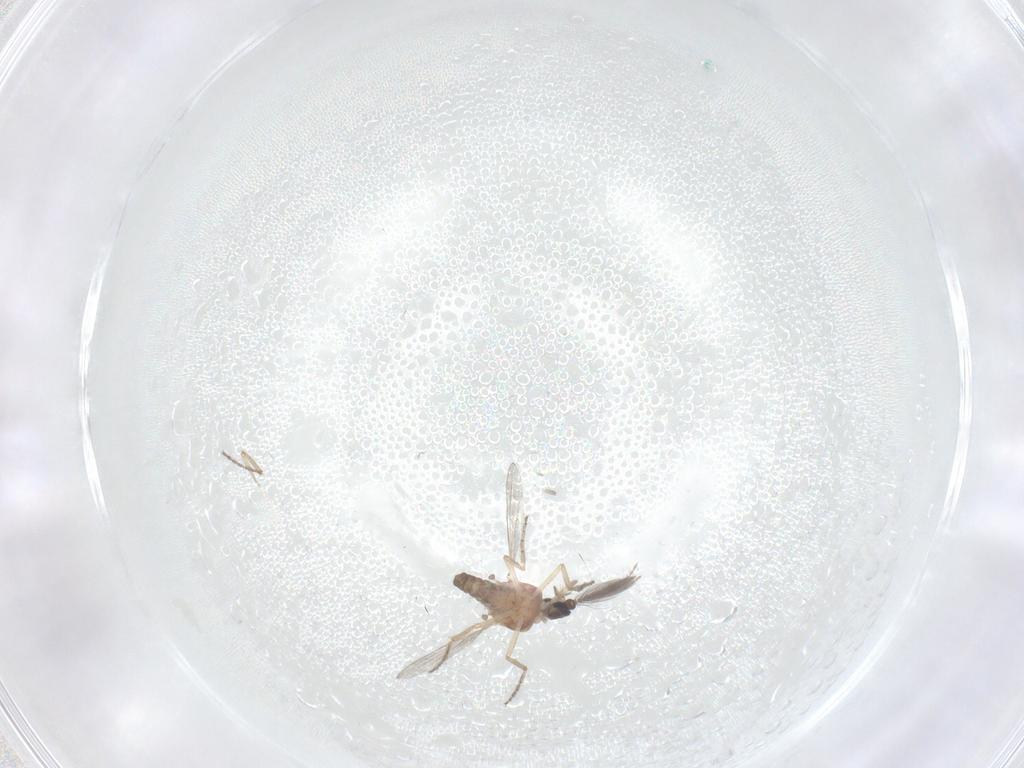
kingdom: Animalia
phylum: Arthropoda
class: Insecta
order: Diptera
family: Ceratopogonidae
